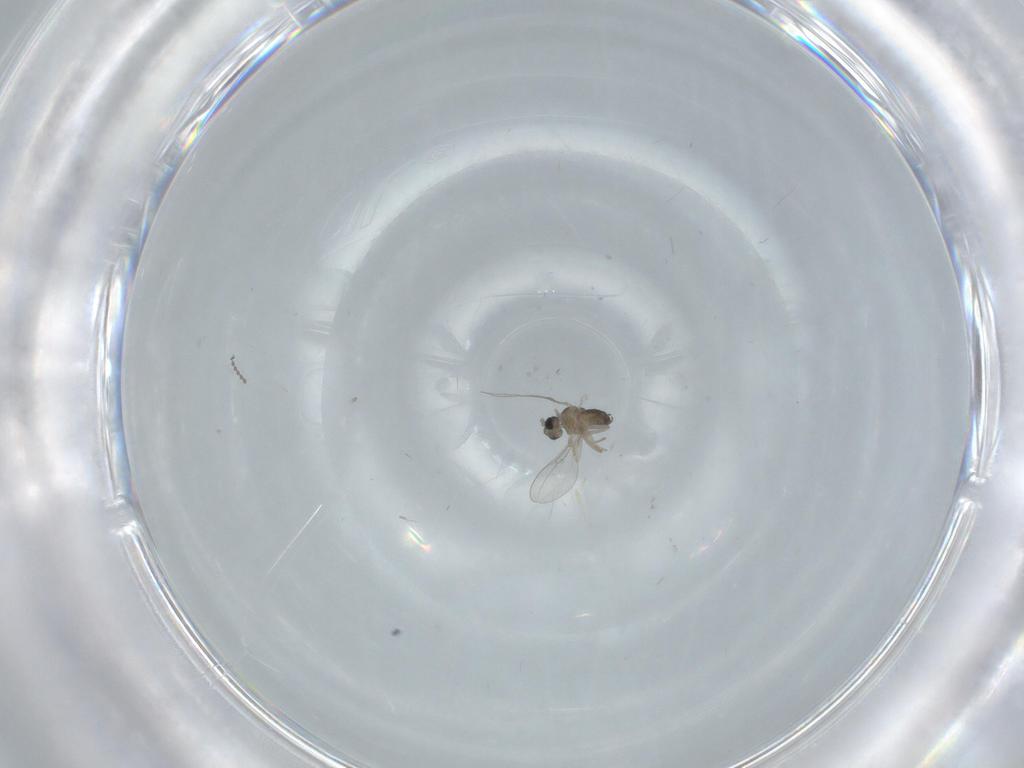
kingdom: Animalia
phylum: Arthropoda
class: Insecta
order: Diptera
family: Cecidomyiidae
